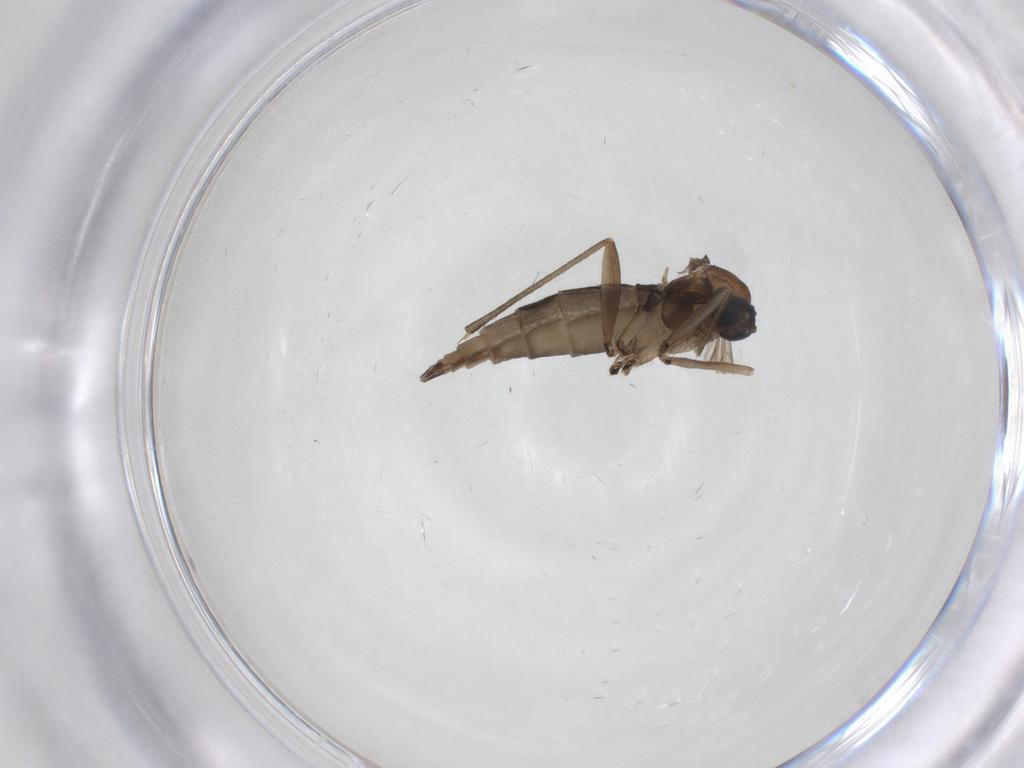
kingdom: Animalia
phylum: Arthropoda
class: Insecta
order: Diptera
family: Sciaridae
